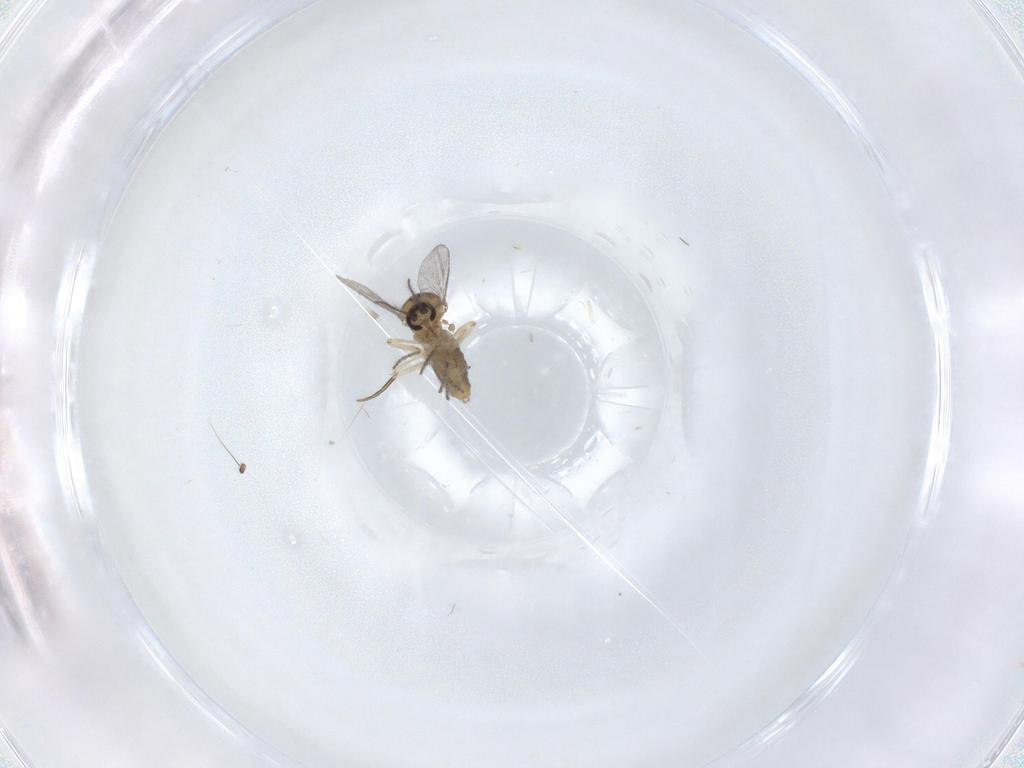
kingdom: Animalia
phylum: Arthropoda
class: Insecta
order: Diptera
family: Ceratopogonidae
